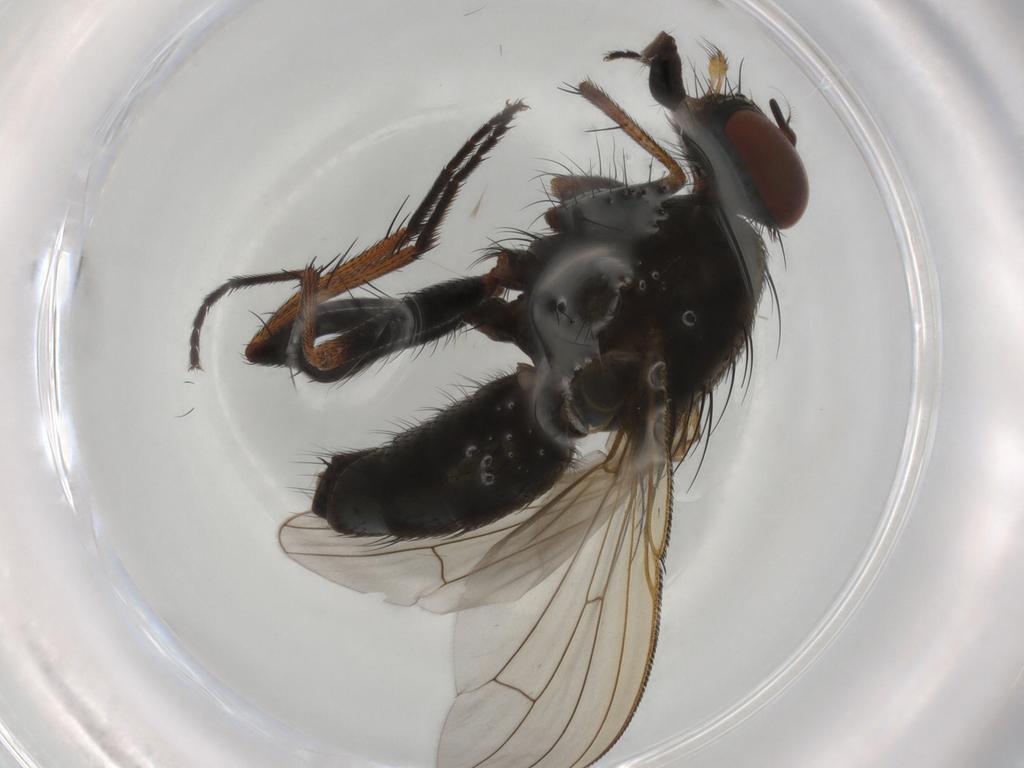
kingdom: Animalia
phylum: Arthropoda
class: Insecta
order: Diptera
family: Muscidae
